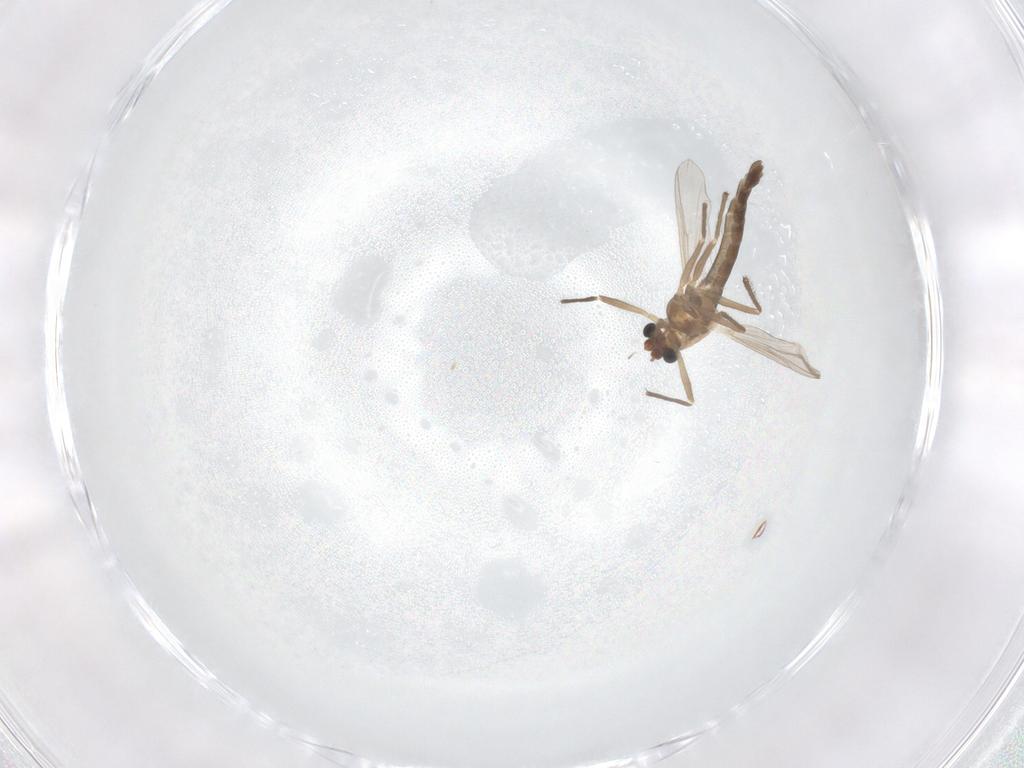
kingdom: Animalia
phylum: Arthropoda
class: Insecta
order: Diptera
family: Chironomidae
